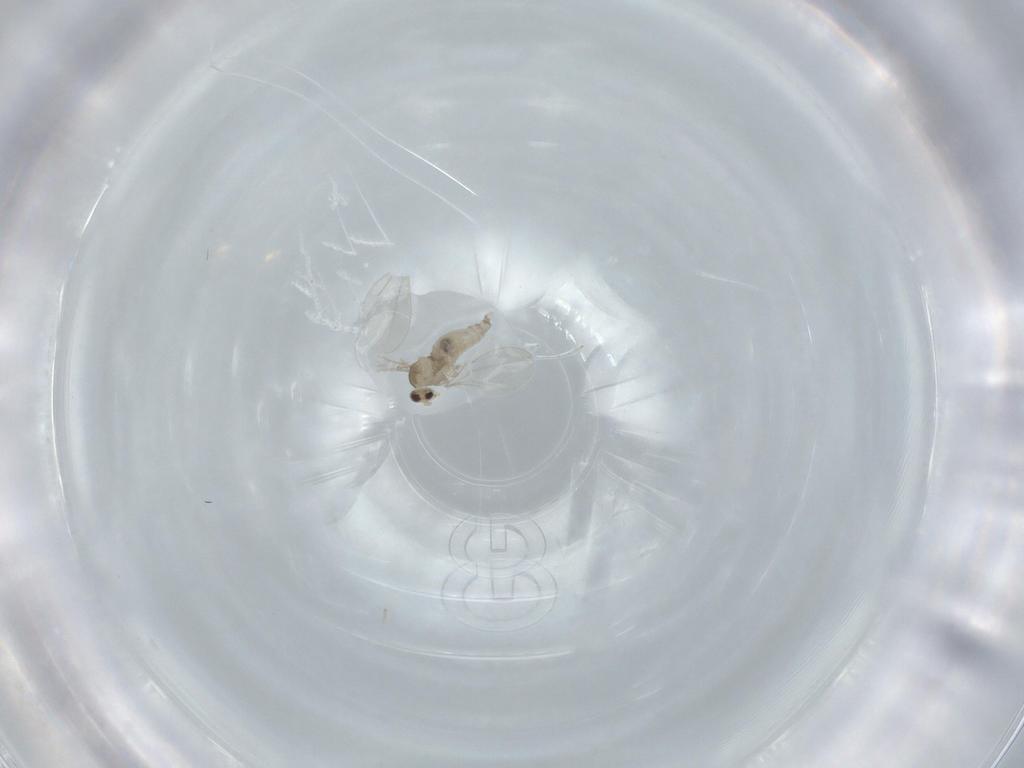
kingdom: Animalia
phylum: Arthropoda
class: Insecta
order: Diptera
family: Cecidomyiidae
